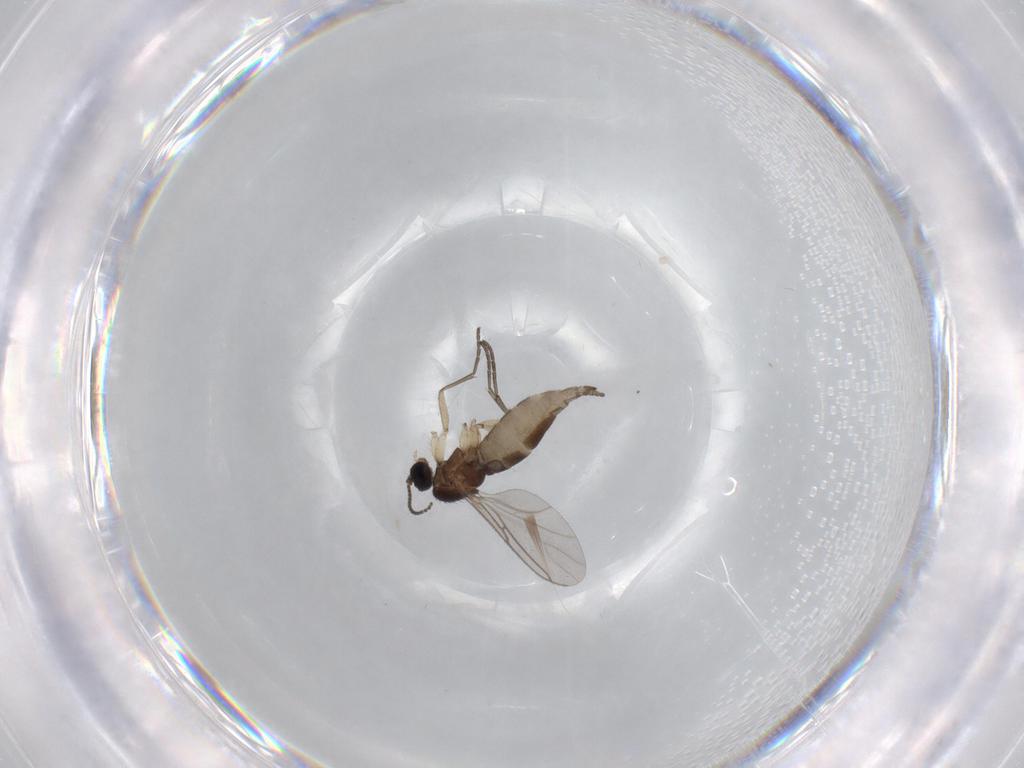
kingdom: Animalia
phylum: Arthropoda
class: Insecta
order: Diptera
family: Sciaridae
